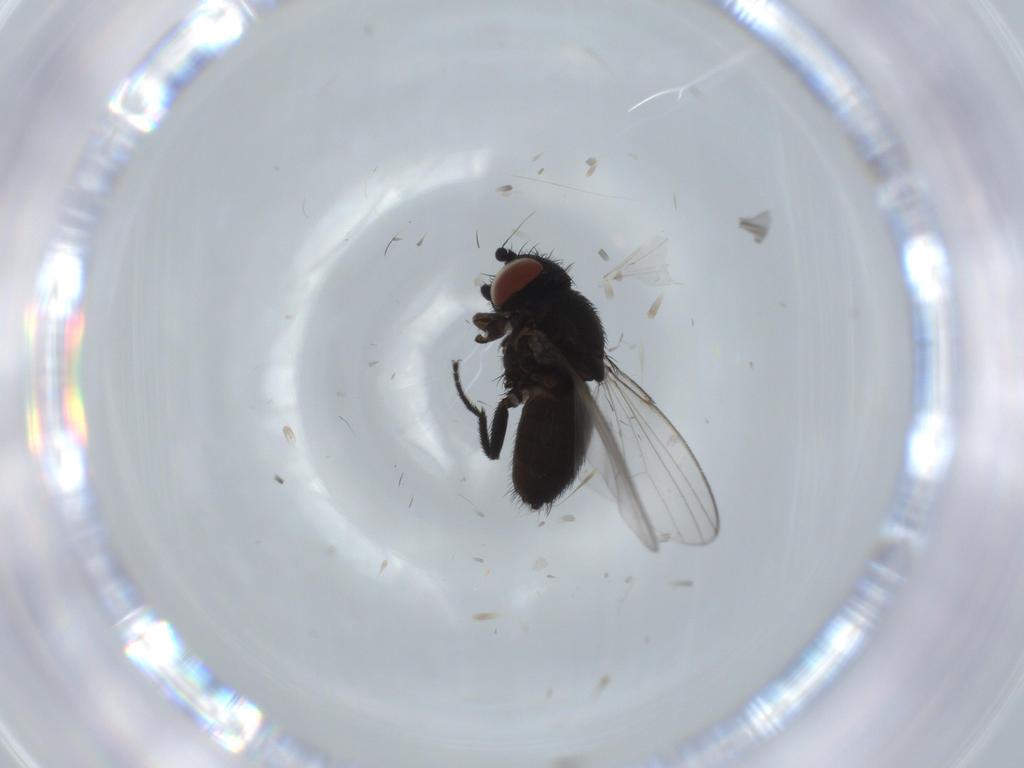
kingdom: Animalia
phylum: Arthropoda
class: Insecta
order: Diptera
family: Milichiidae
